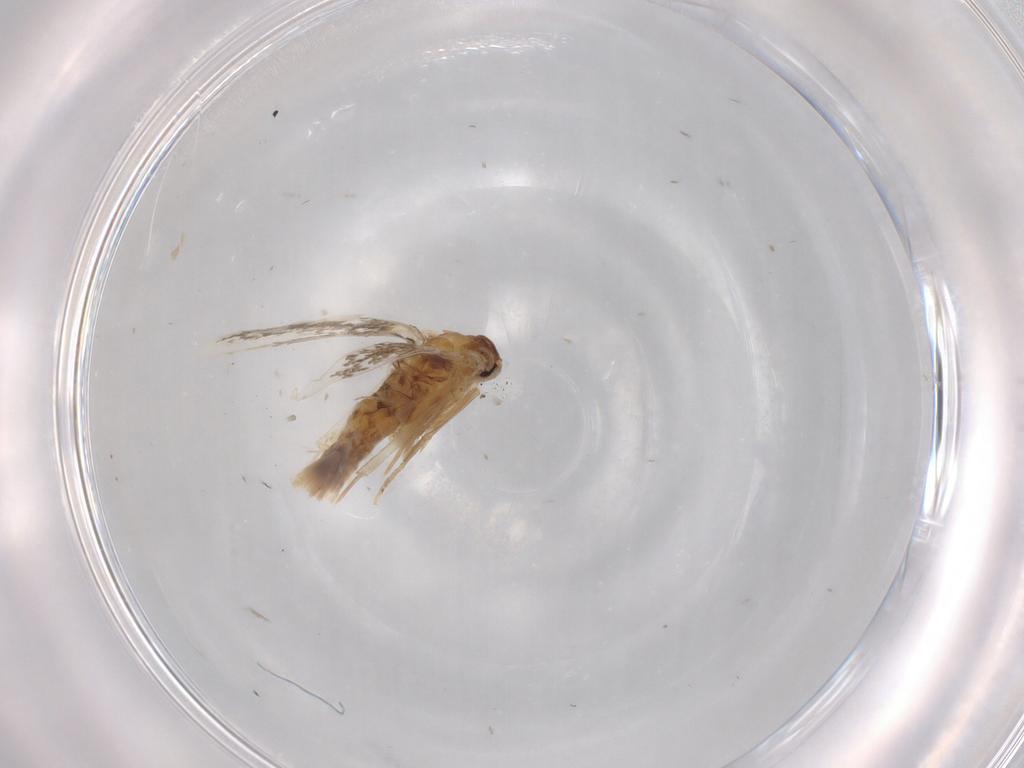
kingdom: Animalia
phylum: Arthropoda
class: Insecta
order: Lepidoptera
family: Elachistidae
